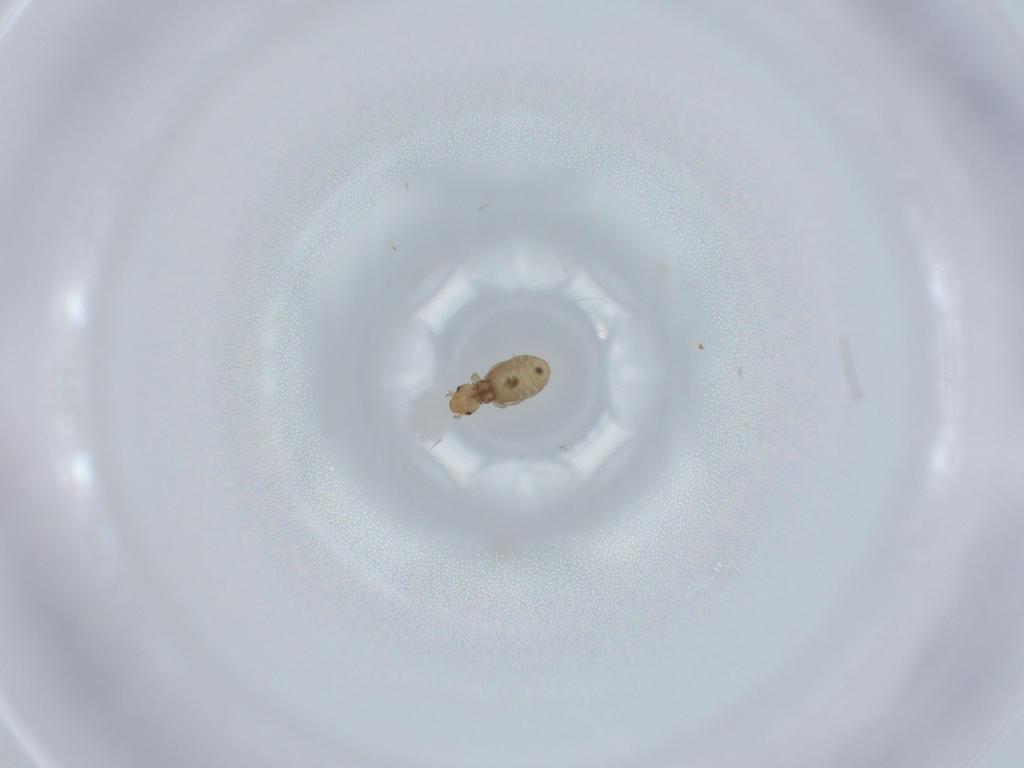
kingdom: Animalia
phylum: Arthropoda
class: Insecta
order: Psocodea
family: Liposcelididae
